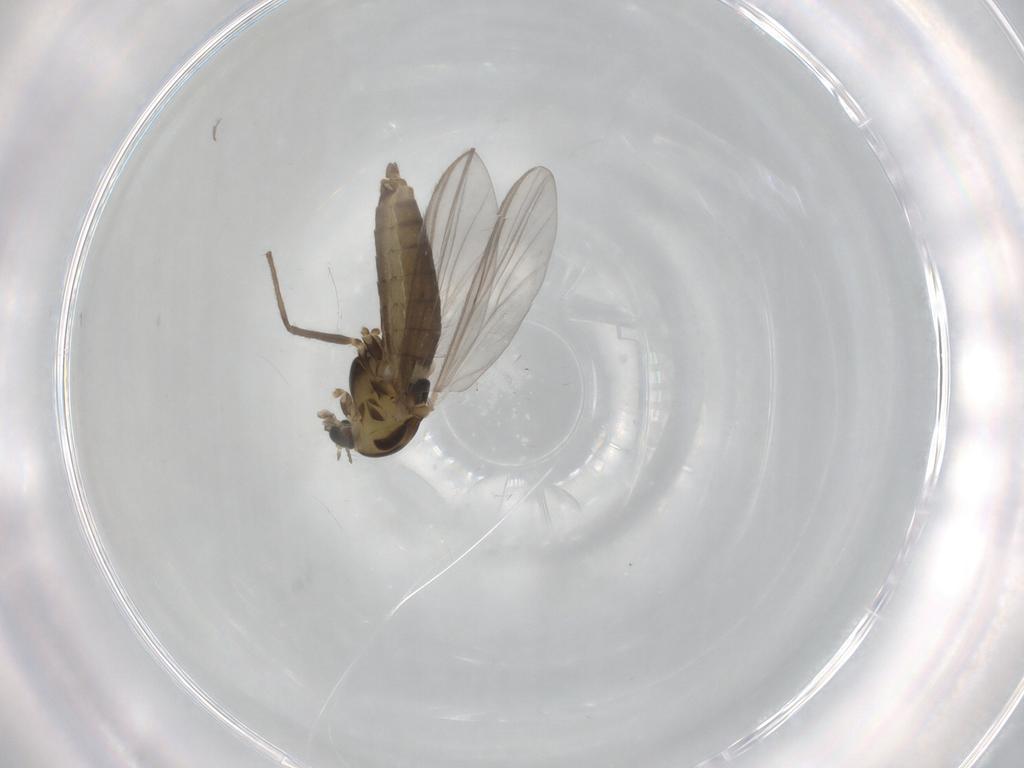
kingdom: Animalia
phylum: Arthropoda
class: Insecta
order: Diptera
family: Chironomidae
